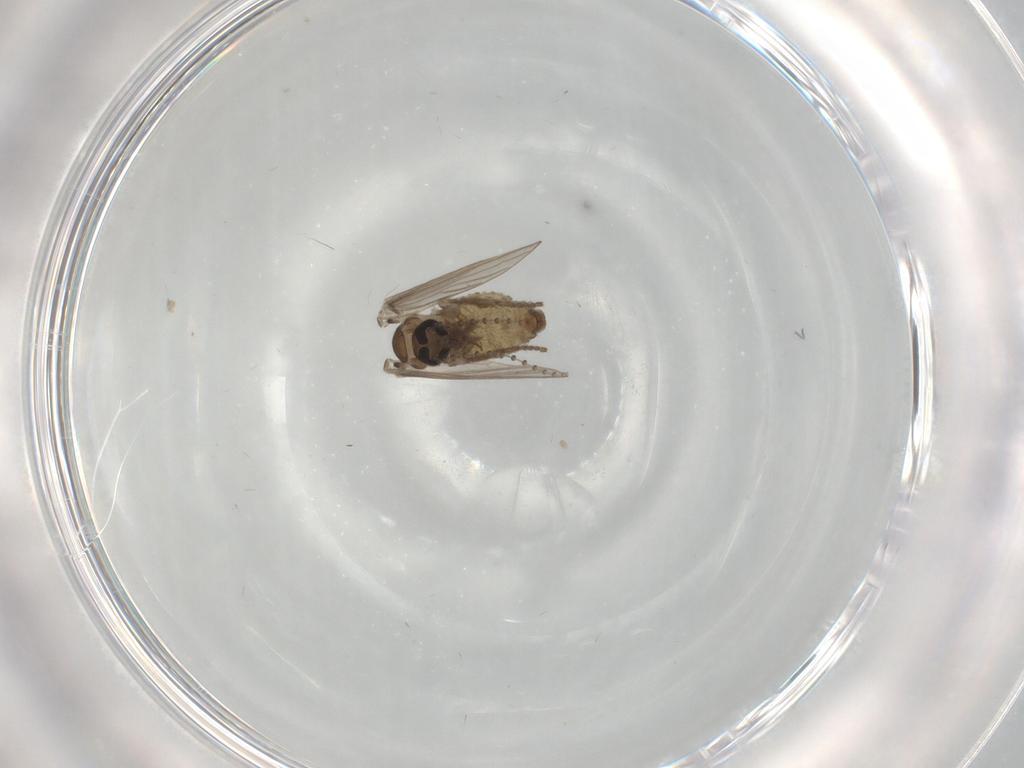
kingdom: Animalia
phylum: Arthropoda
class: Insecta
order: Diptera
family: Psychodidae
